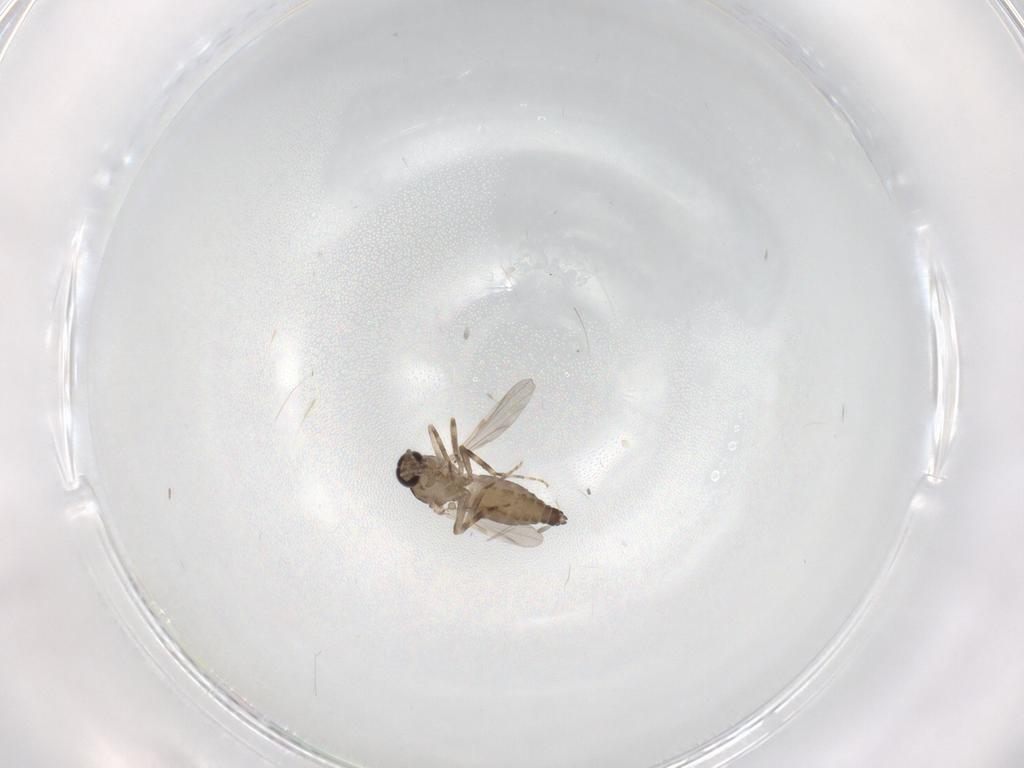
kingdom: Animalia
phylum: Arthropoda
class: Insecta
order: Diptera
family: Ceratopogonidae
